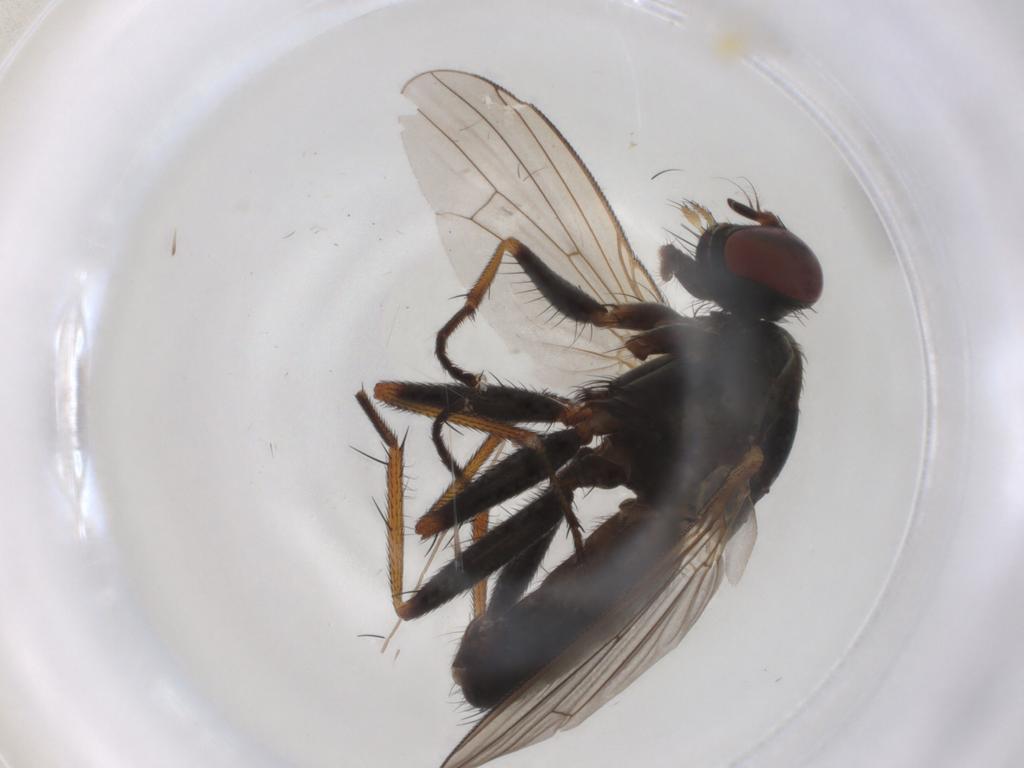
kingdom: Animalia
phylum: Arthropoda
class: Insecta
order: Diptera
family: Muscidae
